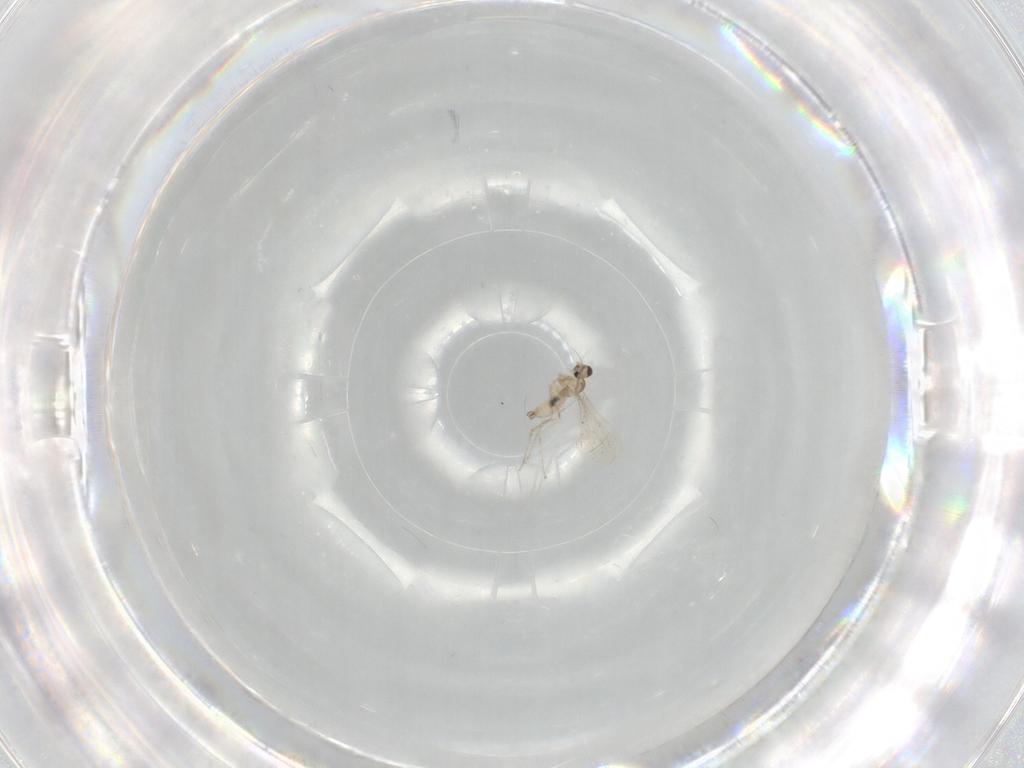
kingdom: Animalia
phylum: Arthropoda
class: Insecta
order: Diptera
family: Cecidomyiidae
